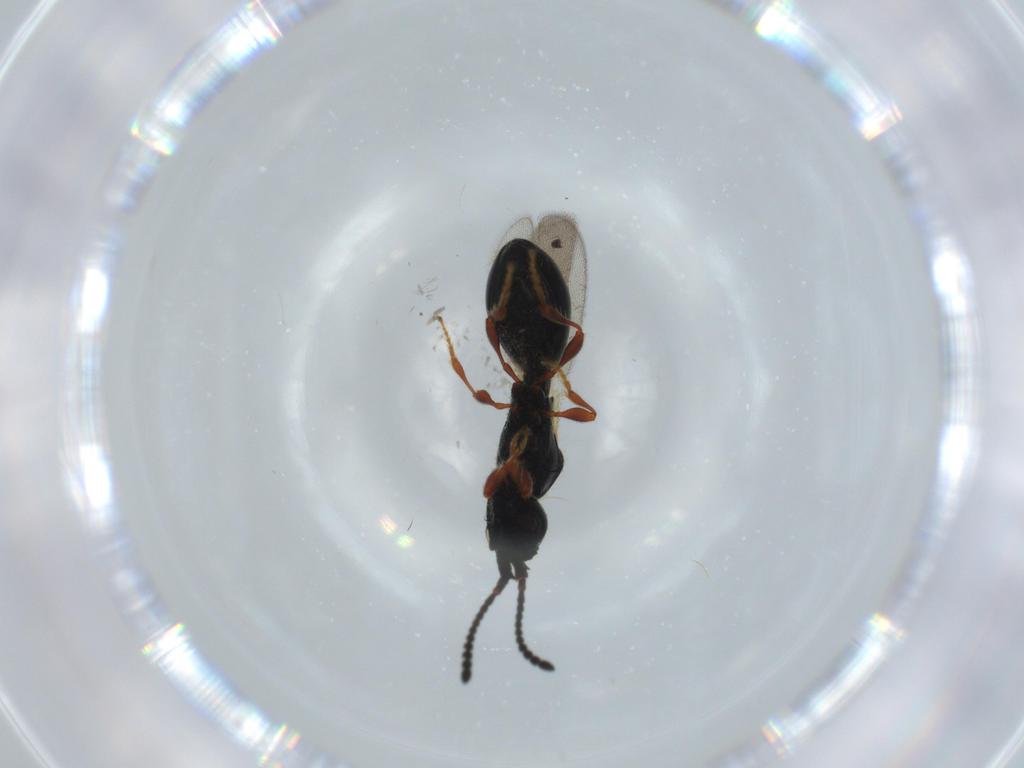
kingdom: Animalia
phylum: Arthropoda
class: Insecta
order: Hymenoptera
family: Diapriidae
